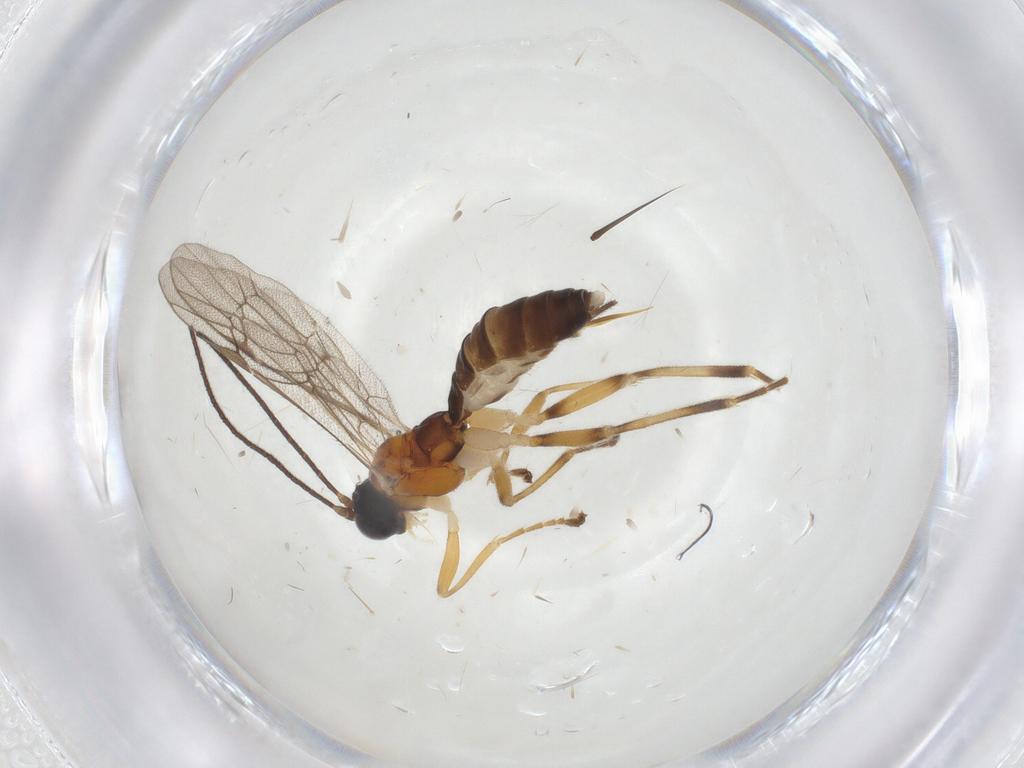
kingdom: Animalia
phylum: Arthropoda
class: Insecta
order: Hymenoptera
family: Ichneumonidae
